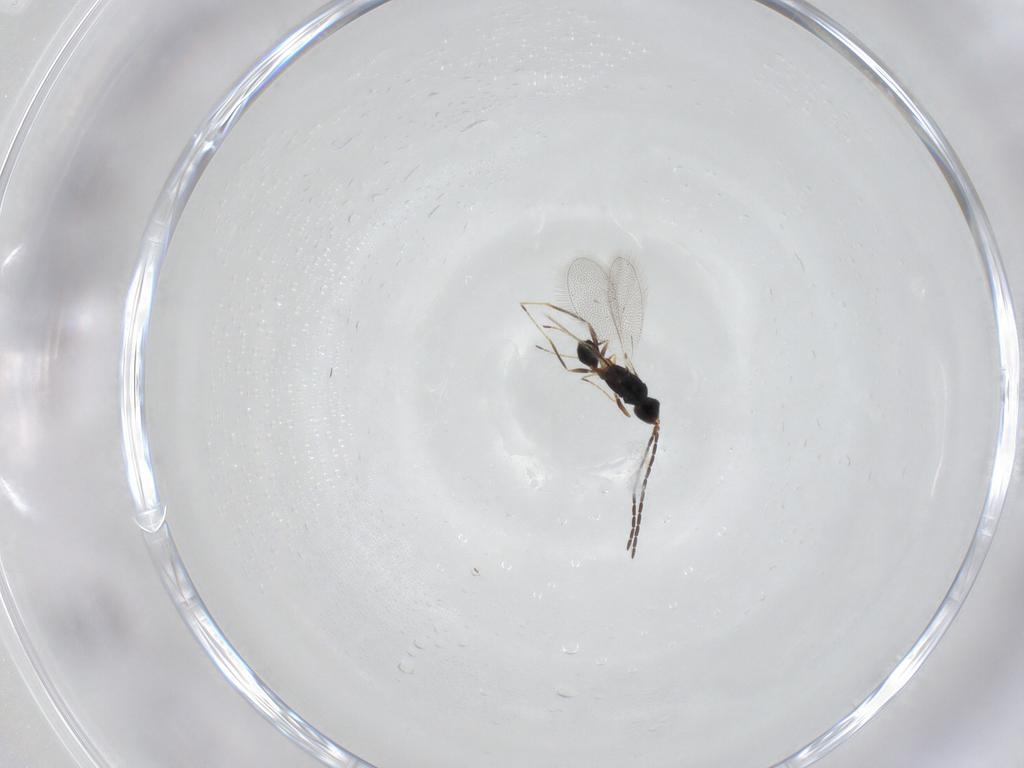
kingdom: Animalia
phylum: Arthropoda
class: Insecta
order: Hymenoptera
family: Mymaridae
